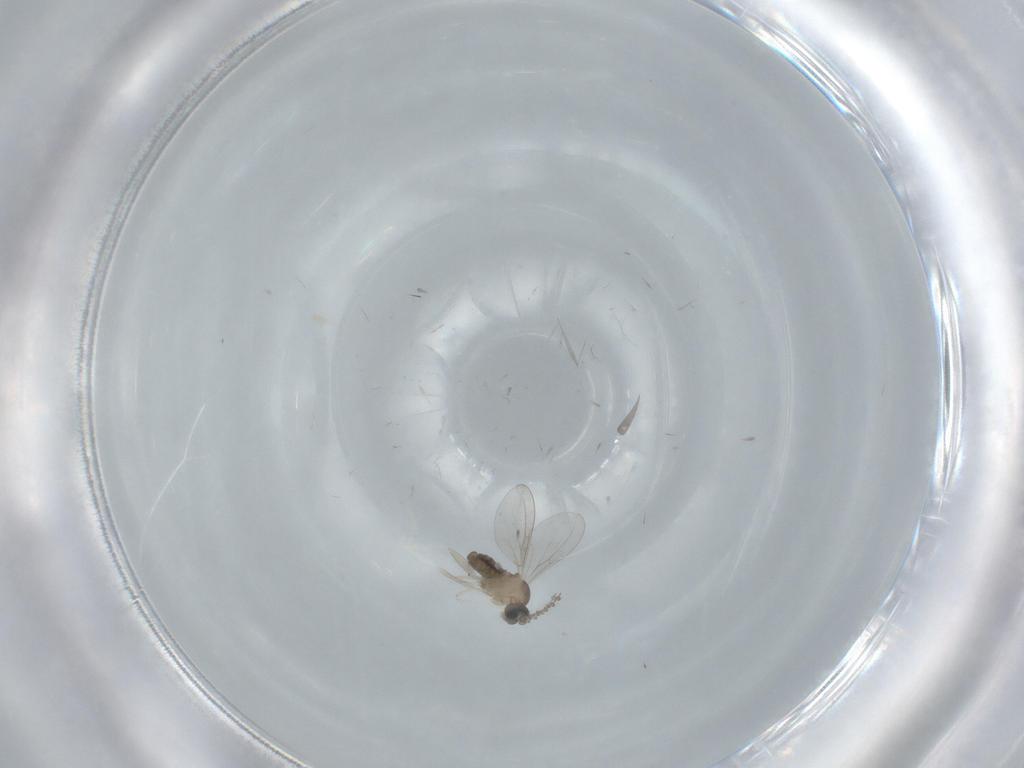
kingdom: Animalia
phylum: Arthropoda
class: Insecta
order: Diptera
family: Cecidomyiidae
